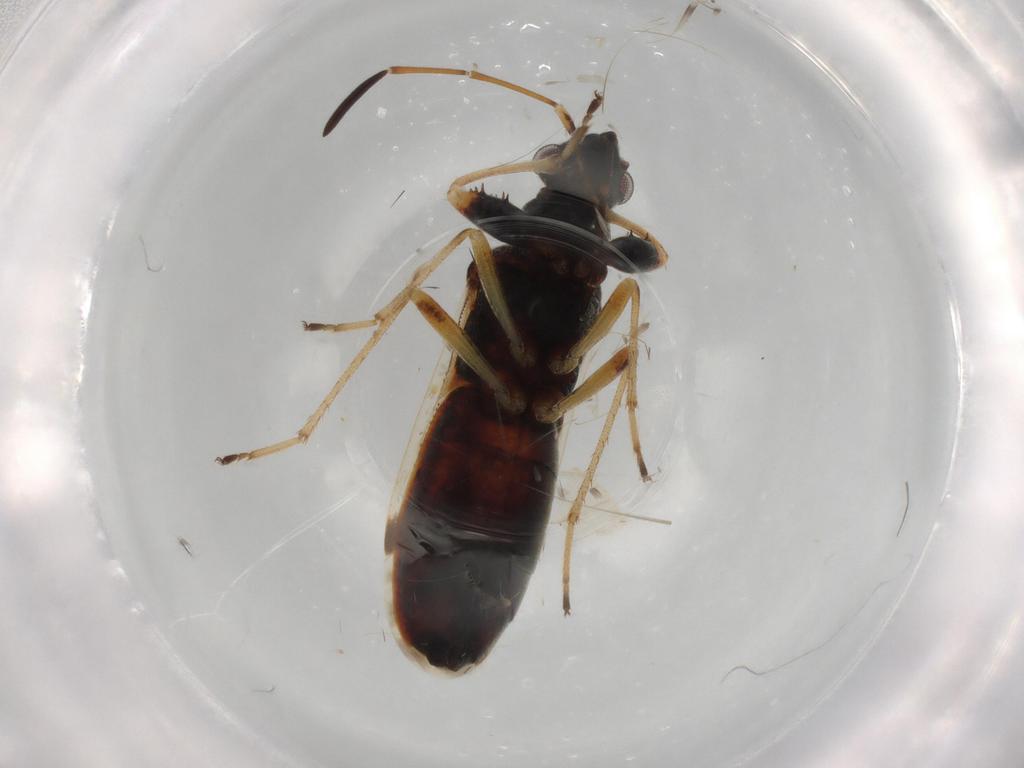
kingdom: Animalia
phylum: Arthropoda
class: Insecta
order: Hemiptera
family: Rhyparochromidae
